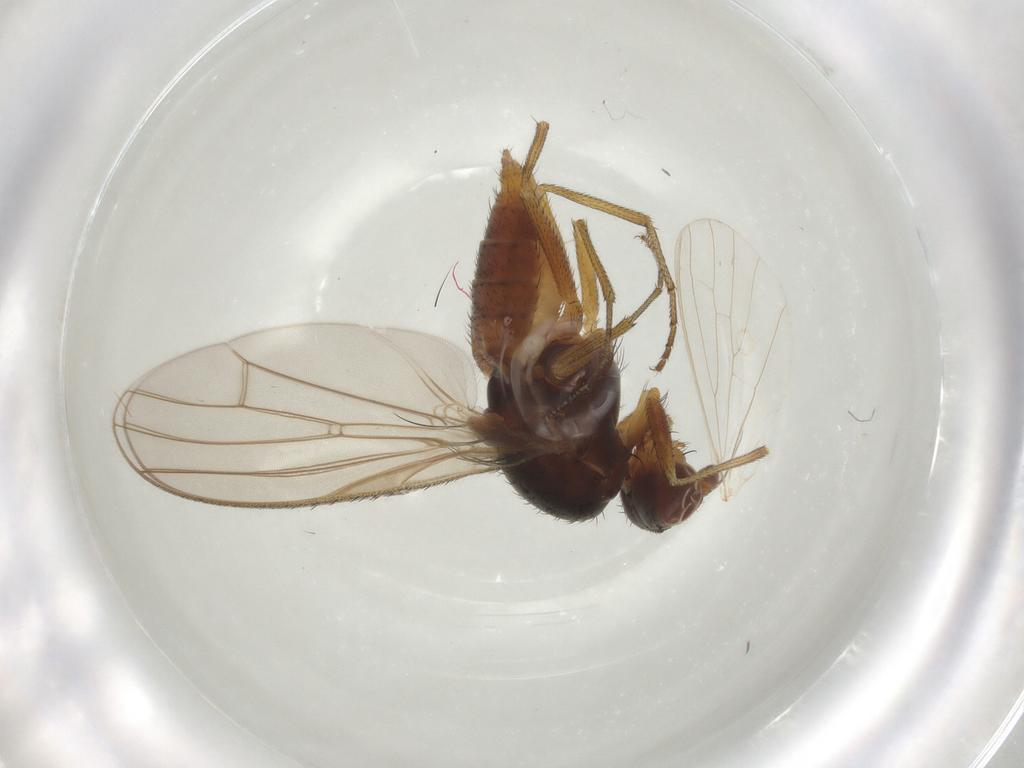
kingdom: Animalia
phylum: Arthropoda
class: Insecta
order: Diptera
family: Heleomyzidae
